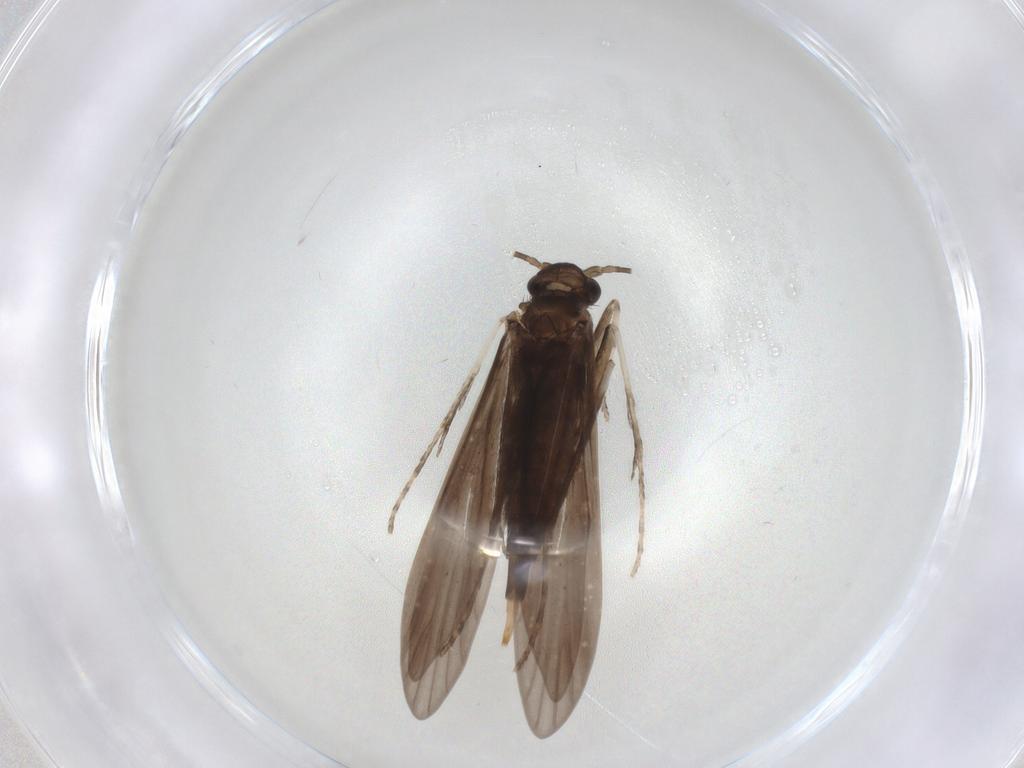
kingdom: Animalia
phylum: Arthropoda
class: Insecta
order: Trichoptera
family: Xiphocentronidae
